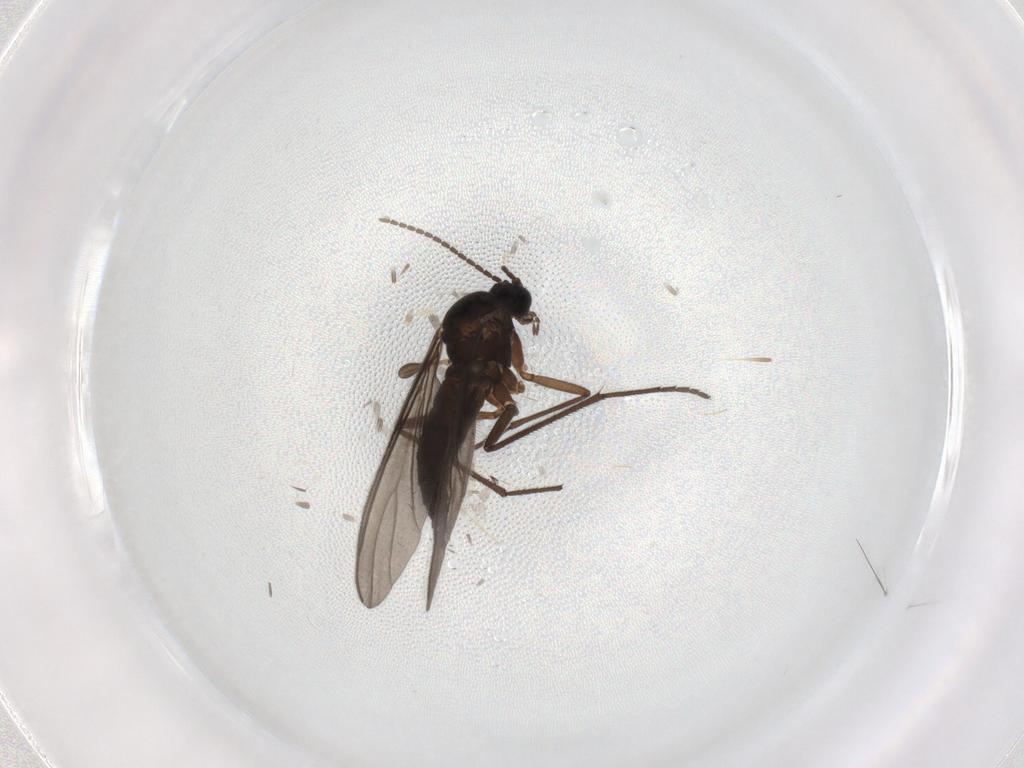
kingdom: Animalia
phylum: Arthropoda
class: Insecta
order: Diptera
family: Sciaridae
